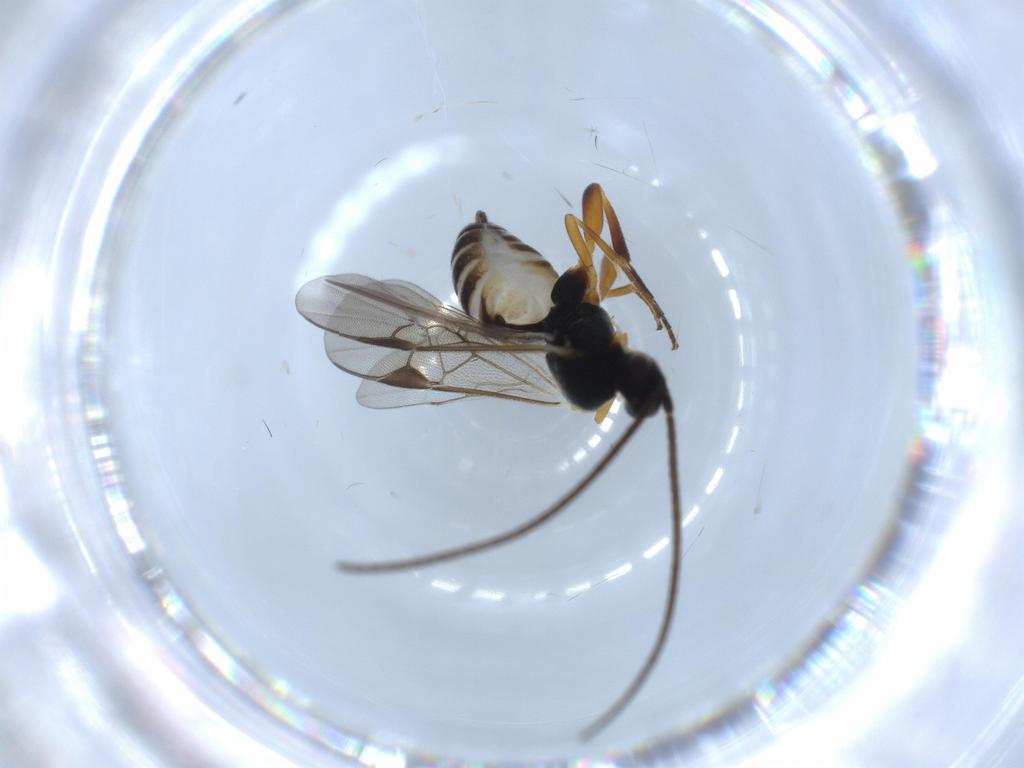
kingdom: Animalia
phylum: Arthropoda
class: Insecta
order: Hymenoptera
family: Braconidae
